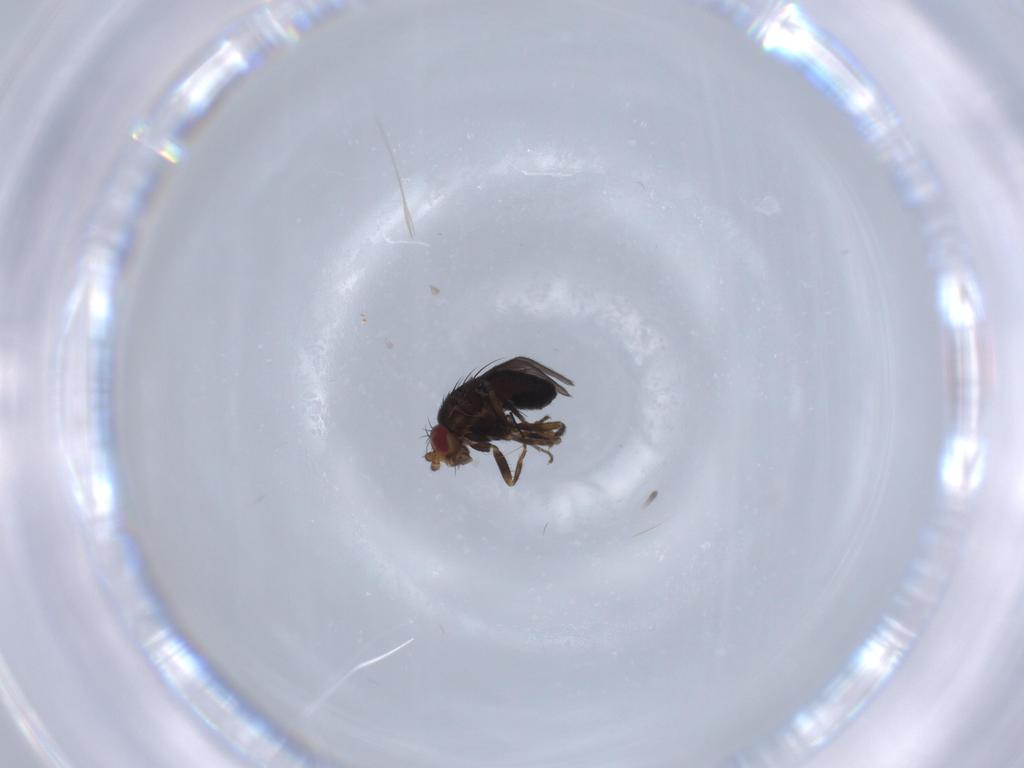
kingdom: Animalia
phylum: Arthropoda
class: Insecta
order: Diptera
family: Sphaeroceridae
